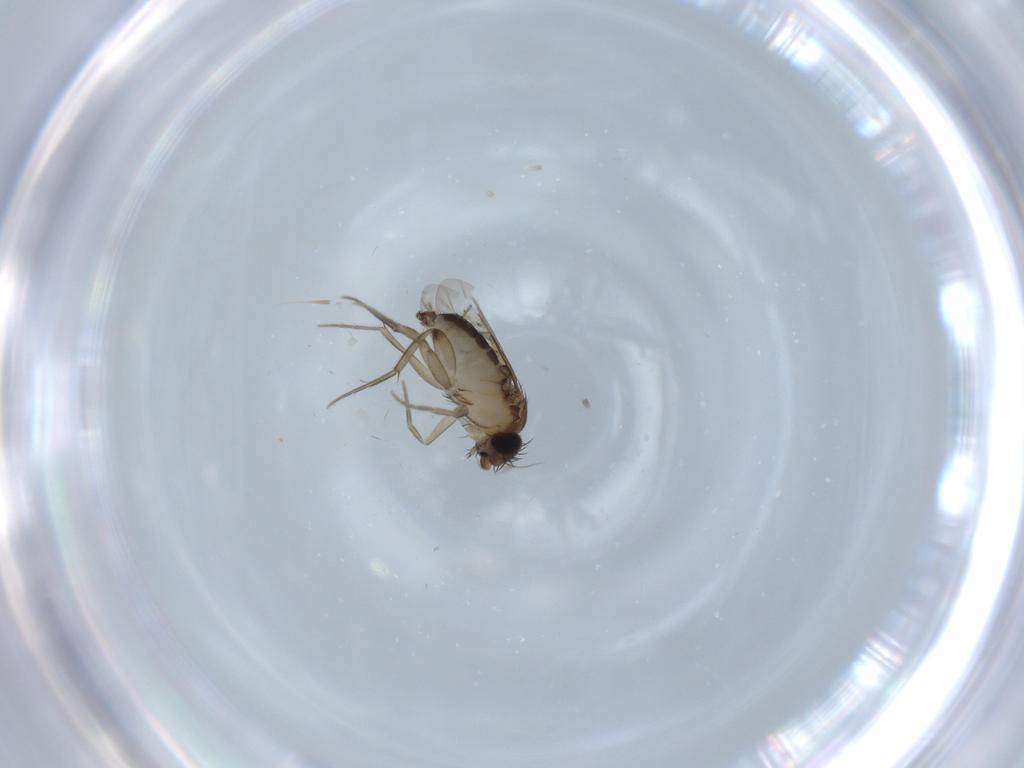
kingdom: Animalia
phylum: Arthropoda
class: Insecta
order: Diptera
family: Phoridae
